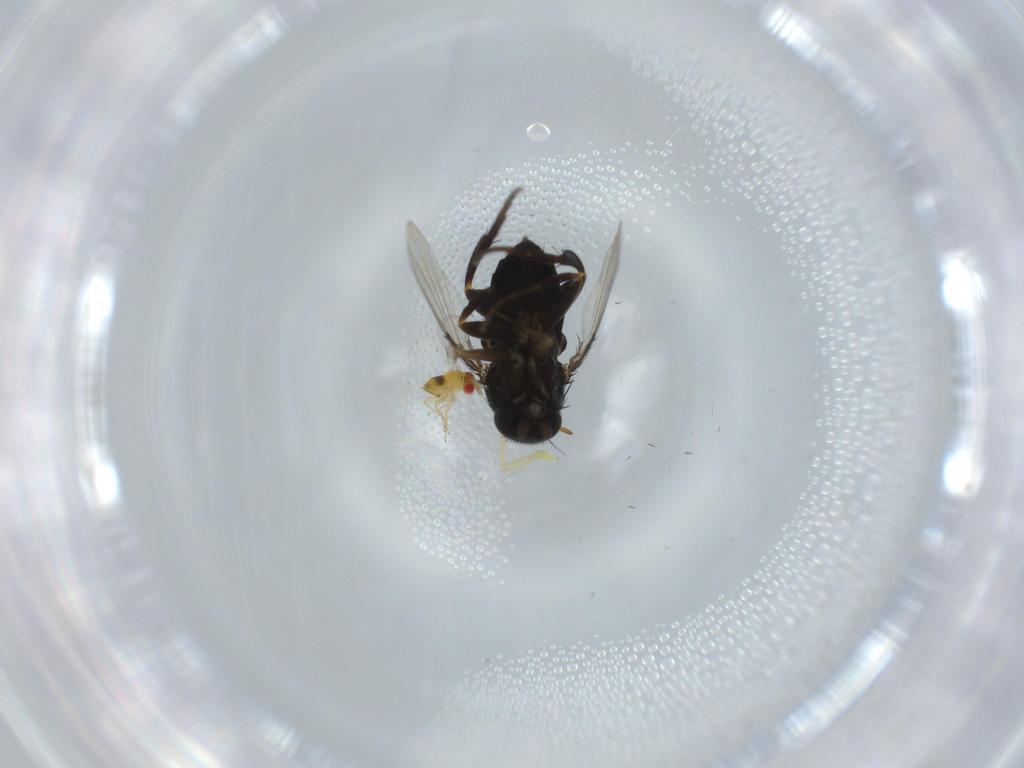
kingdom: Animalia
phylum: Arthropoda
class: Insecta
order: Diptera
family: Phoridae
